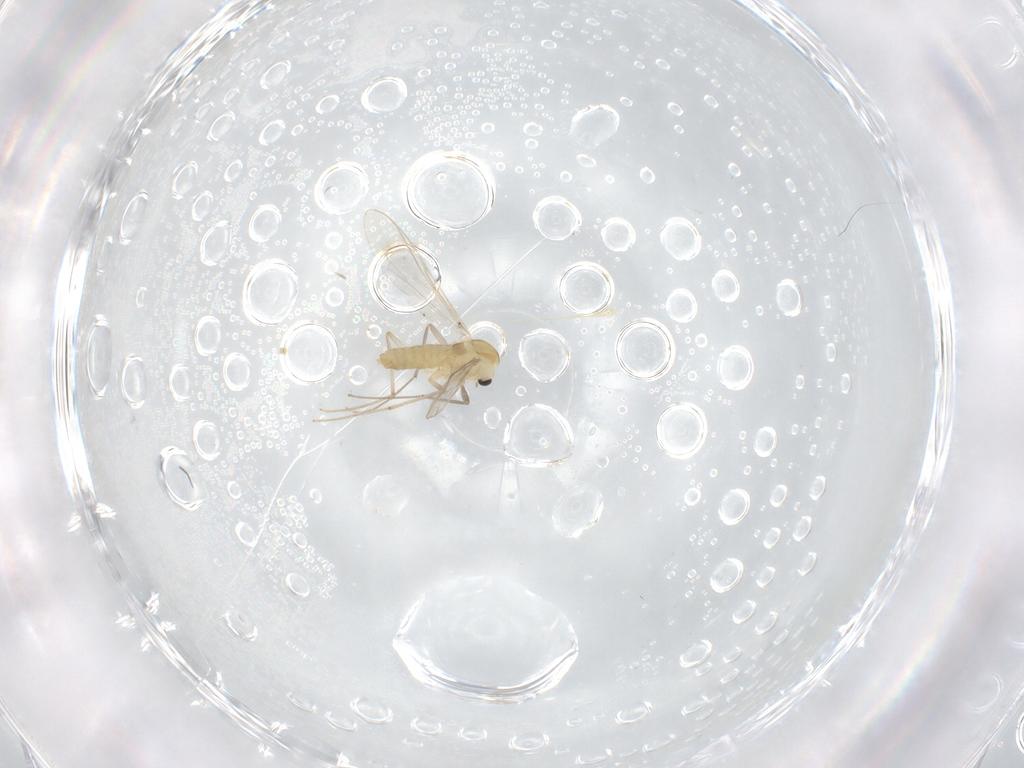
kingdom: Animalia
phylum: Arthropoda
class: Insecta
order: Diptera
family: Chironomidae
